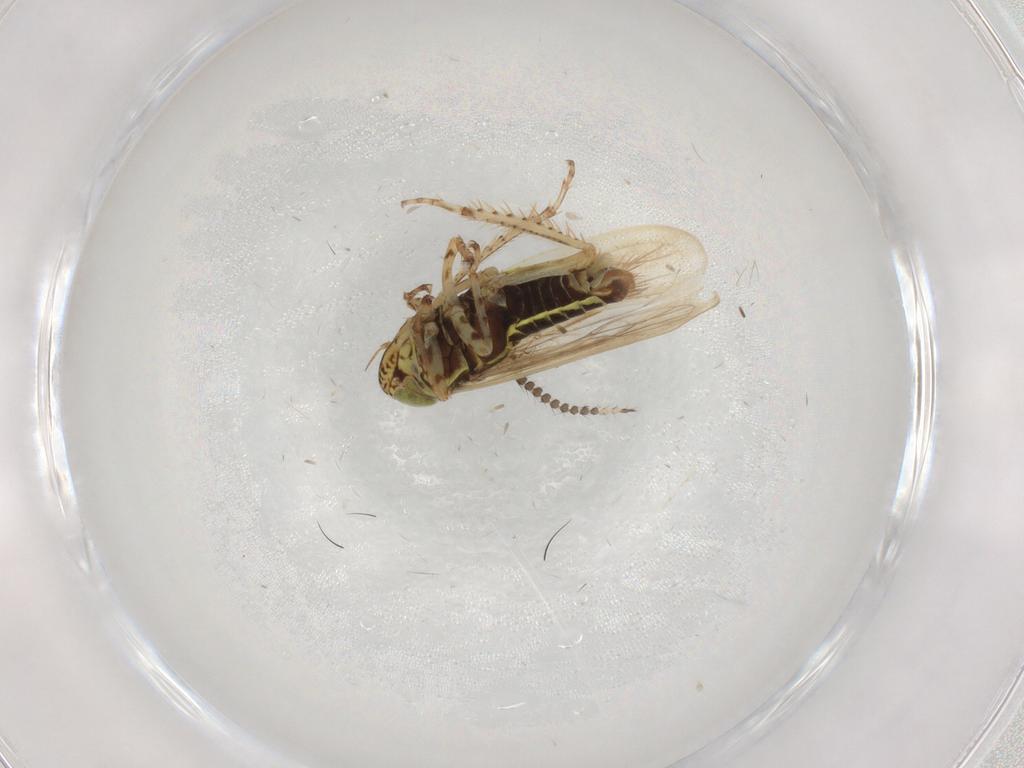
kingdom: Animalia
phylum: Arthropoda
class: Insecta
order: Hemiptera
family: Cicadellidae
